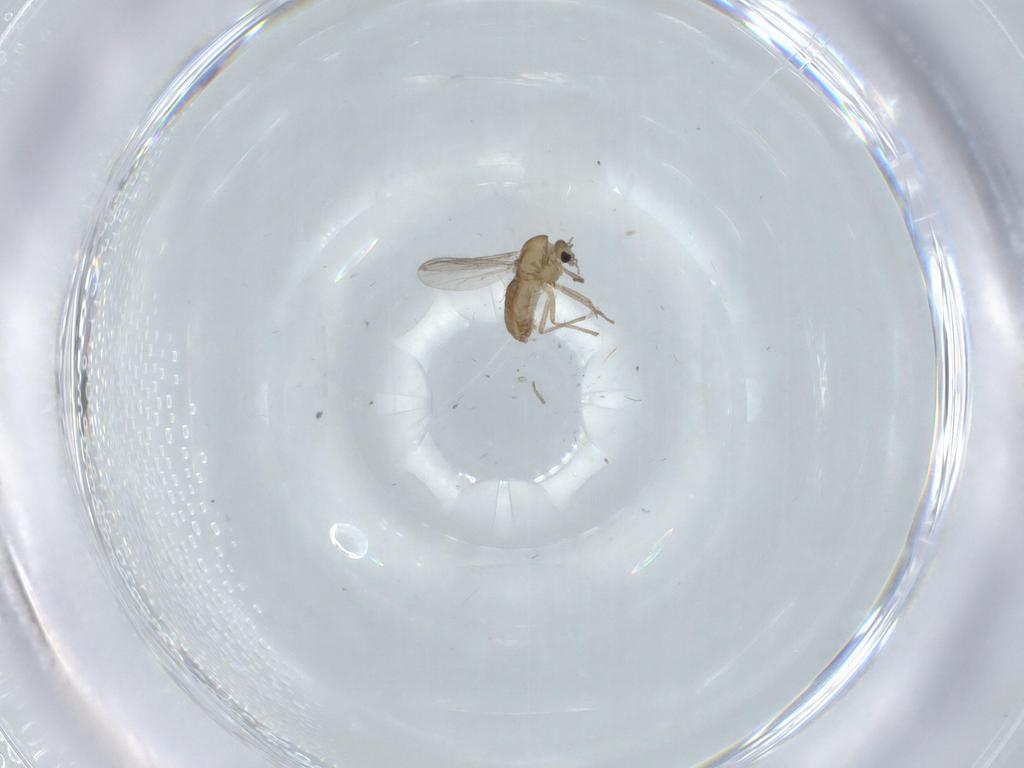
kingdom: Animalia
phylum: Arthropoda
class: Insecta
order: Diptera
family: Chironomidae
